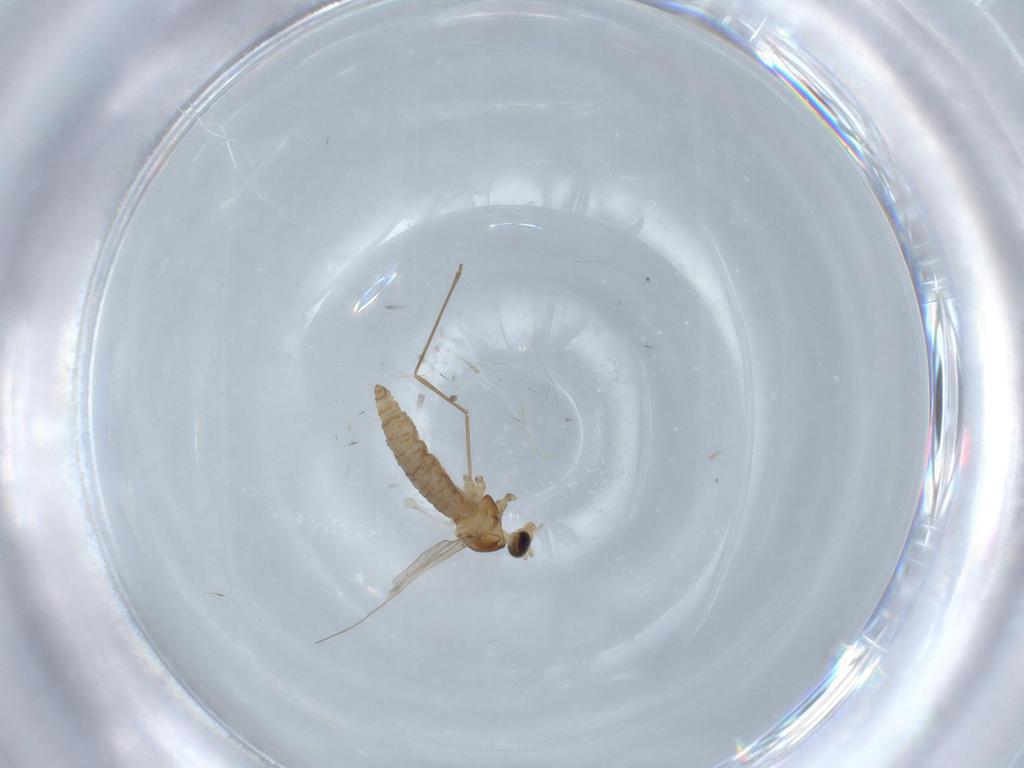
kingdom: Animalia
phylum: Arthropoda
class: Insecta
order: Diptera
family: Cecidomyiidae
